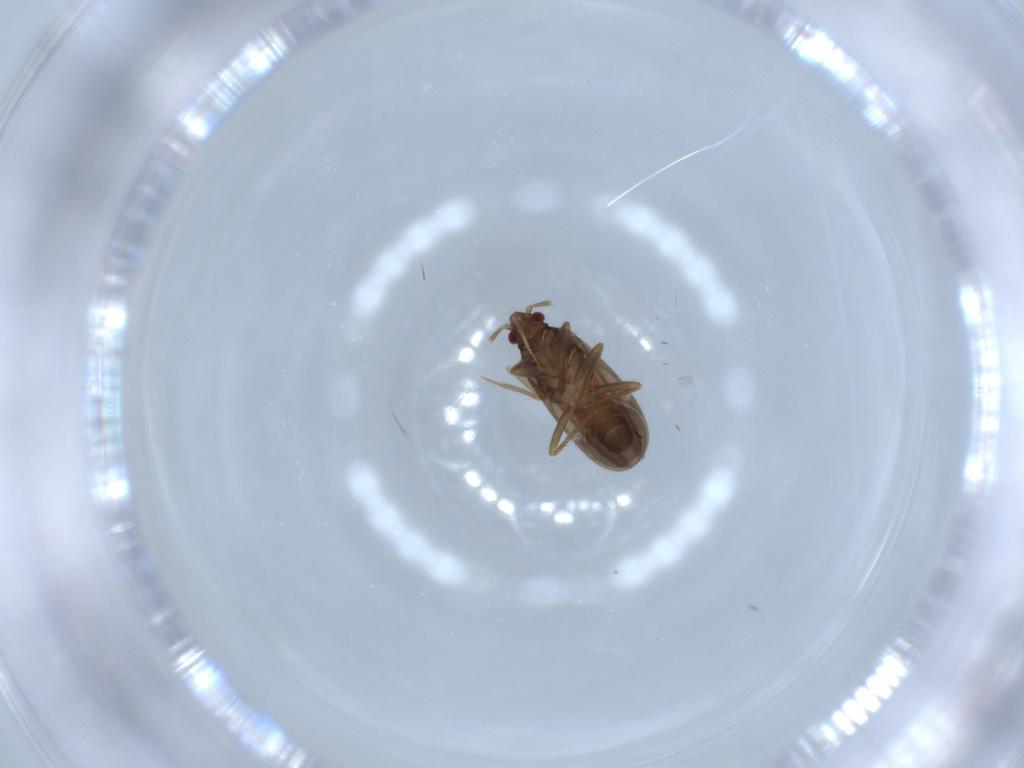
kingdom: Animalia
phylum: Arthropoda
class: Insecta
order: Hemiptera
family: Ceratocombidae
